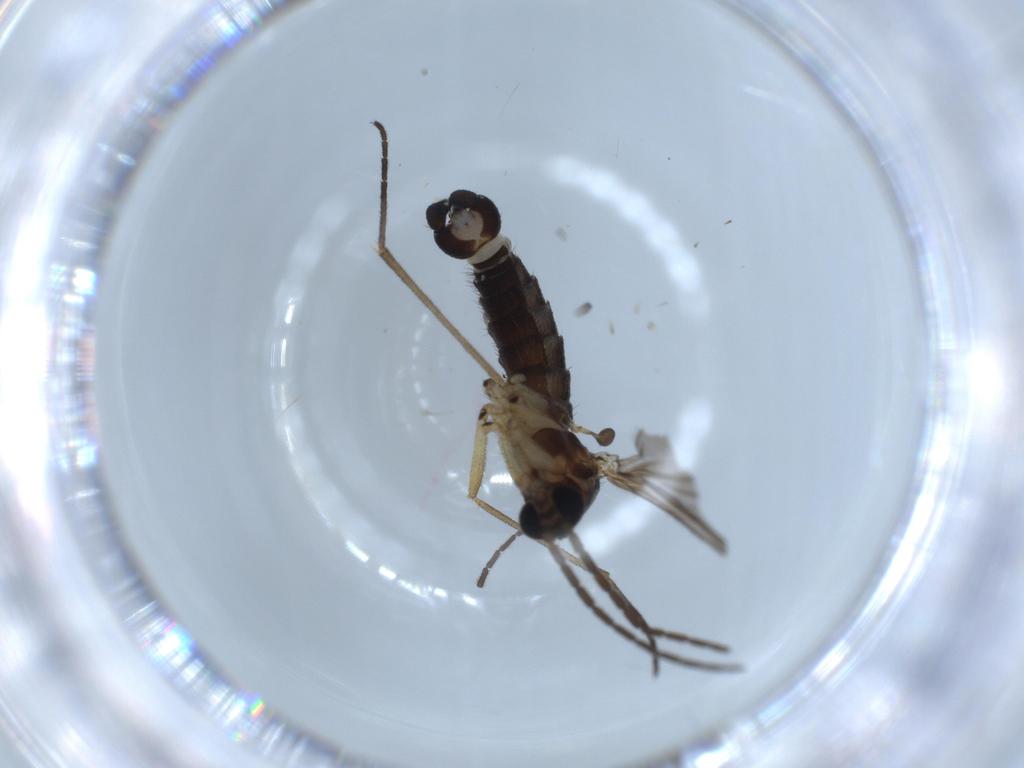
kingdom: Animalia
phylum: Arthropoda
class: Insecta
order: Diptera
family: Sciaridae
